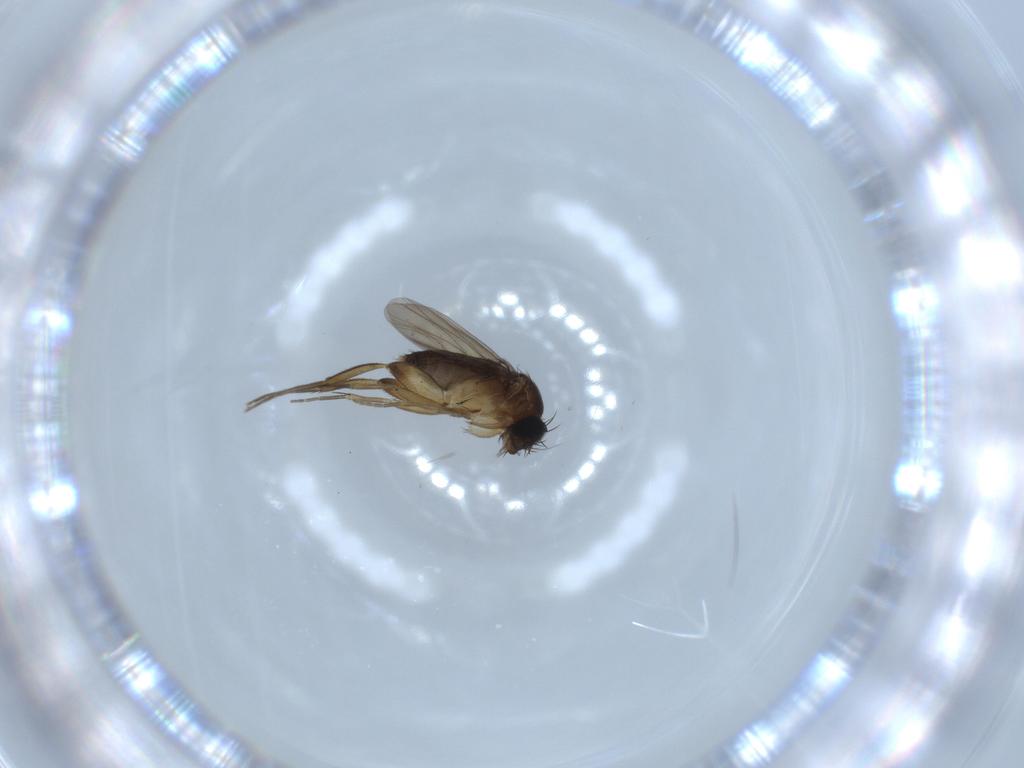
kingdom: Animalia
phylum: Arthropoda
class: Insecta
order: Diptera
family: Phoridae
